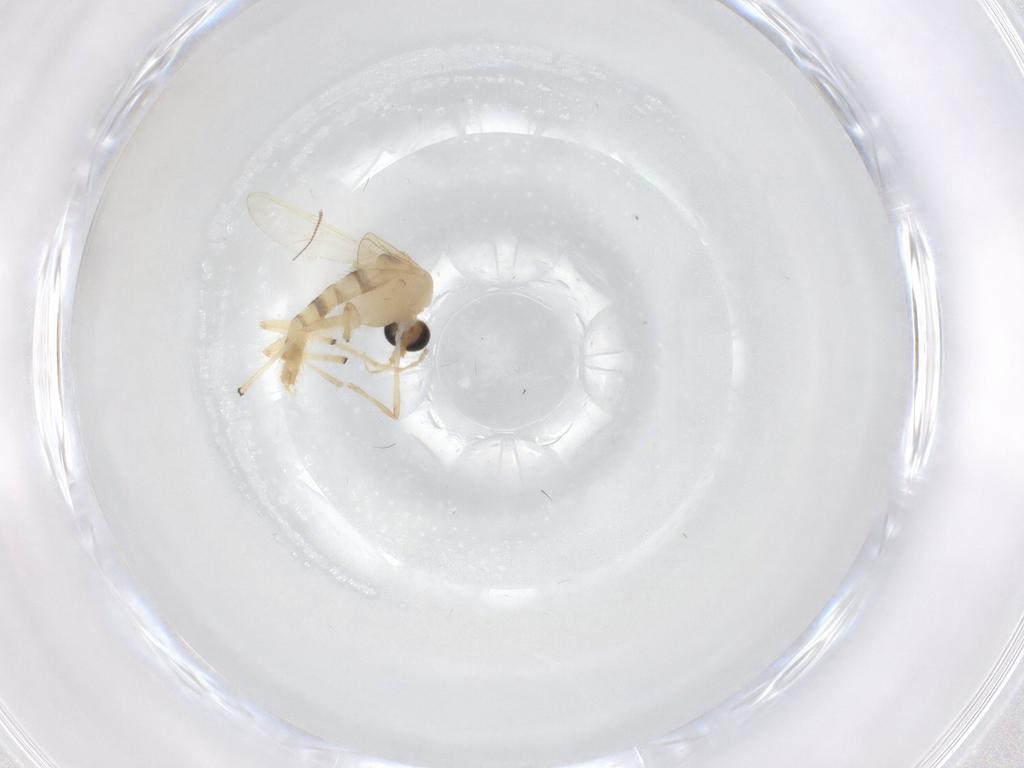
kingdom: Animalia
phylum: Arthropoda
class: Insecta
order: Diptera
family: Chironomidae
